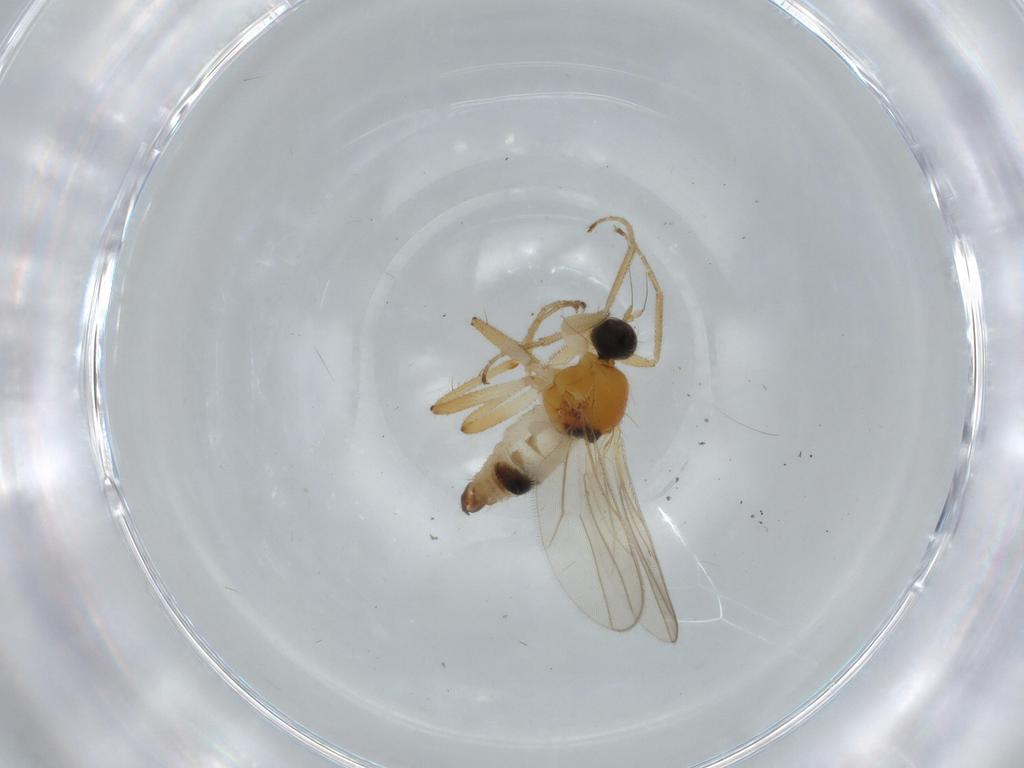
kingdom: Animalia
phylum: Arthropoda
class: Insecta
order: Diptera
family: Hybotidae
